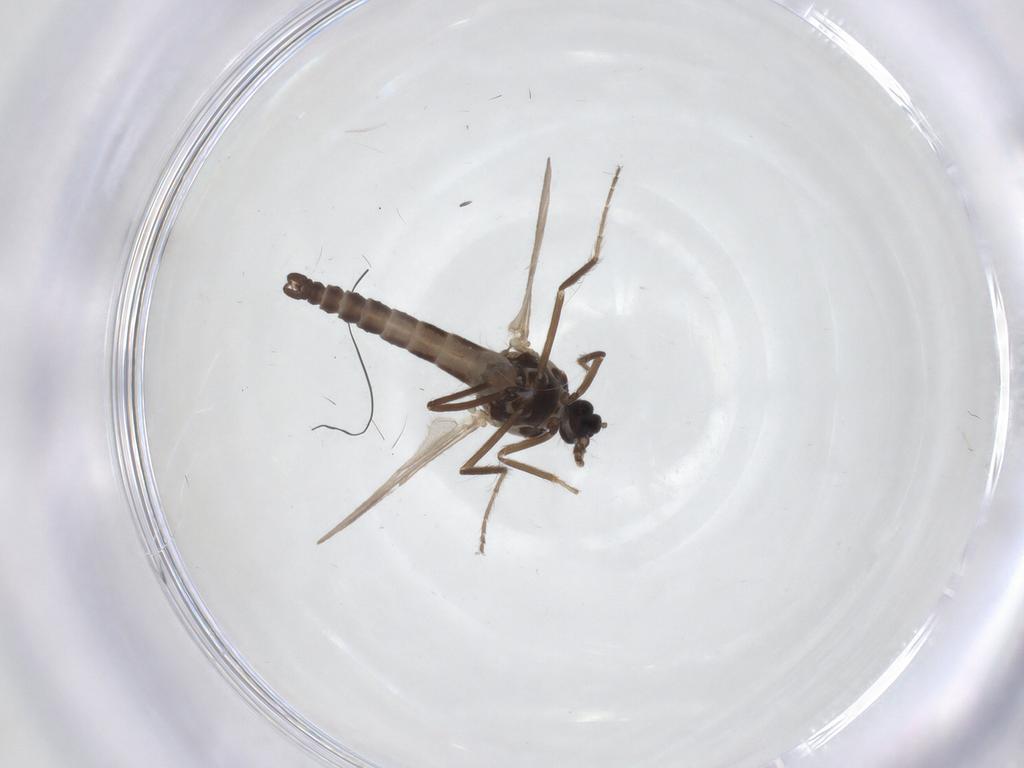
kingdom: Animalia
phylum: Arthropoda
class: Insecta
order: Diptera
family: Ceratopogonidae
